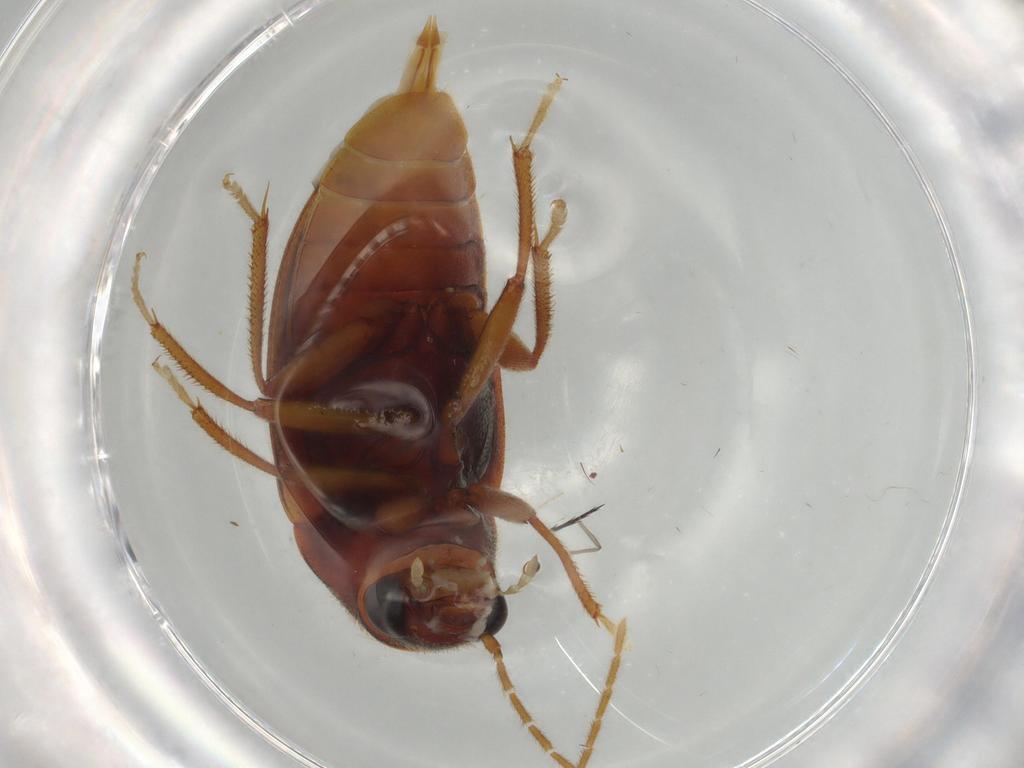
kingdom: Animalia
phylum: Arthropoda
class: Insecta
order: Coleoptera
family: Ptilodactylidae
